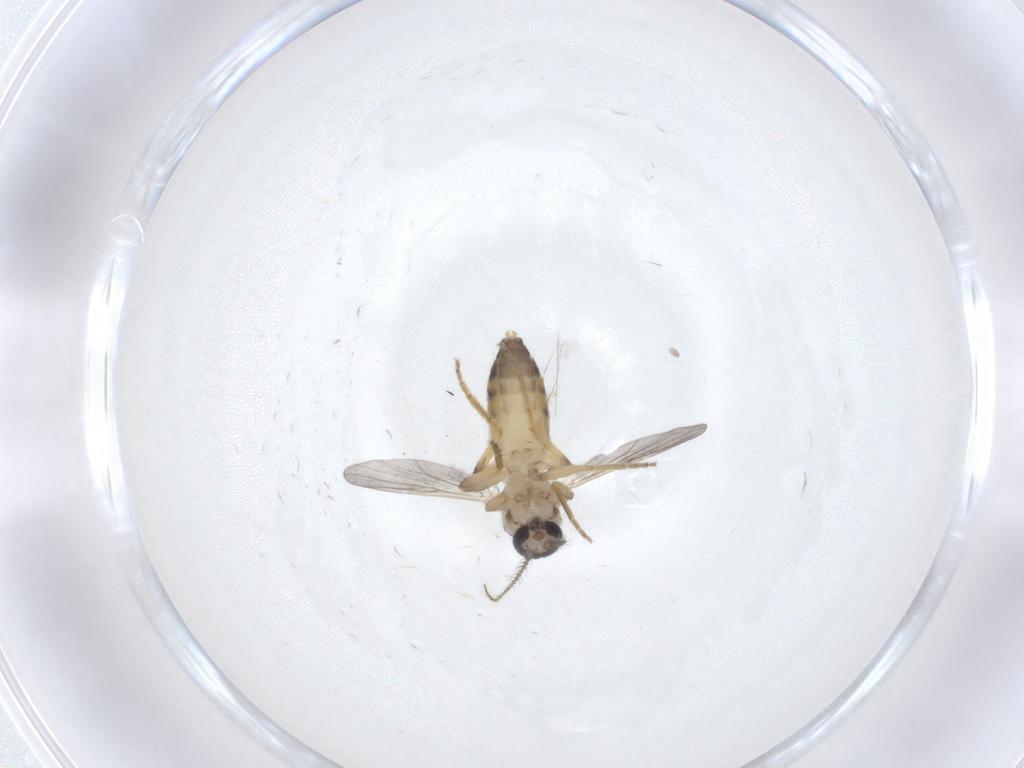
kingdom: Animalia
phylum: Arthropoda
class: Insecta
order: Diptera
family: Ceratopogonidae
